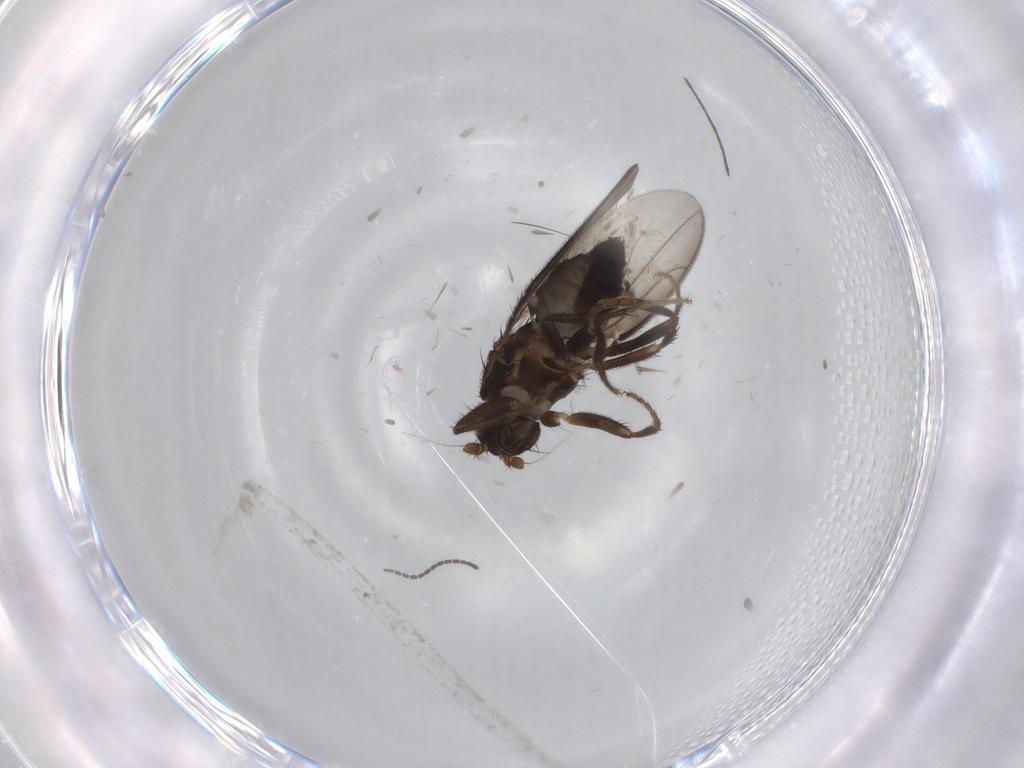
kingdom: Animalia
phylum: Arthropoda
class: Insecta
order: Diptera
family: Sphaeroceridae
